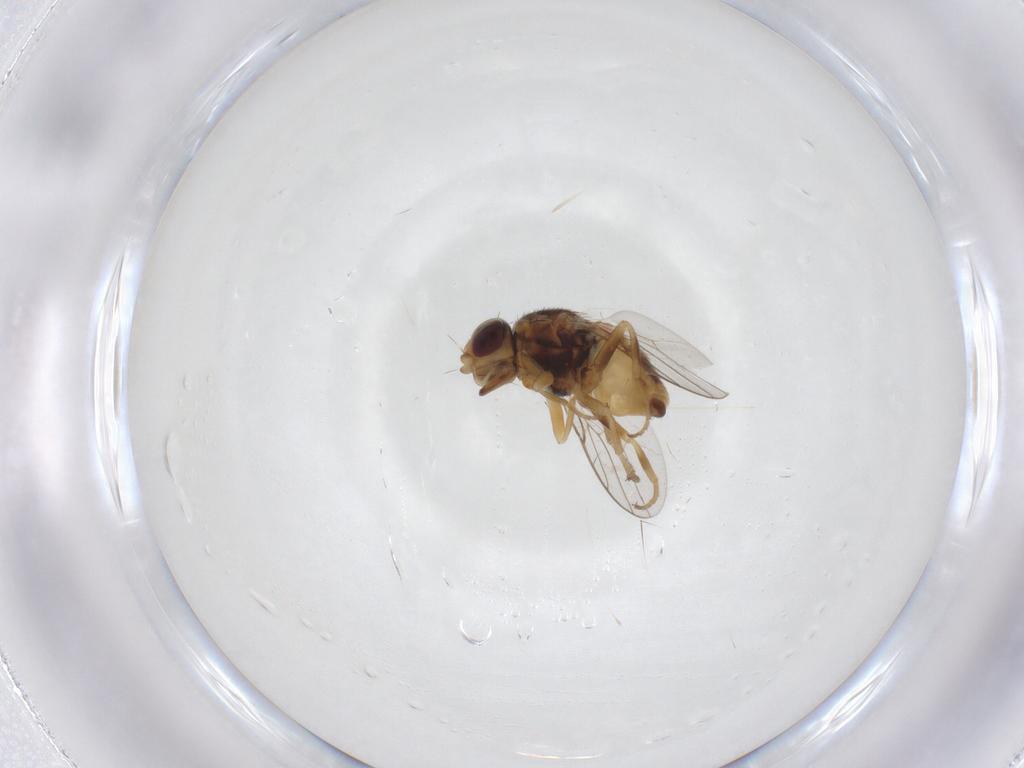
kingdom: Animalia
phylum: Arthropoda
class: Insecta
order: Diptera
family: Chloropidae
